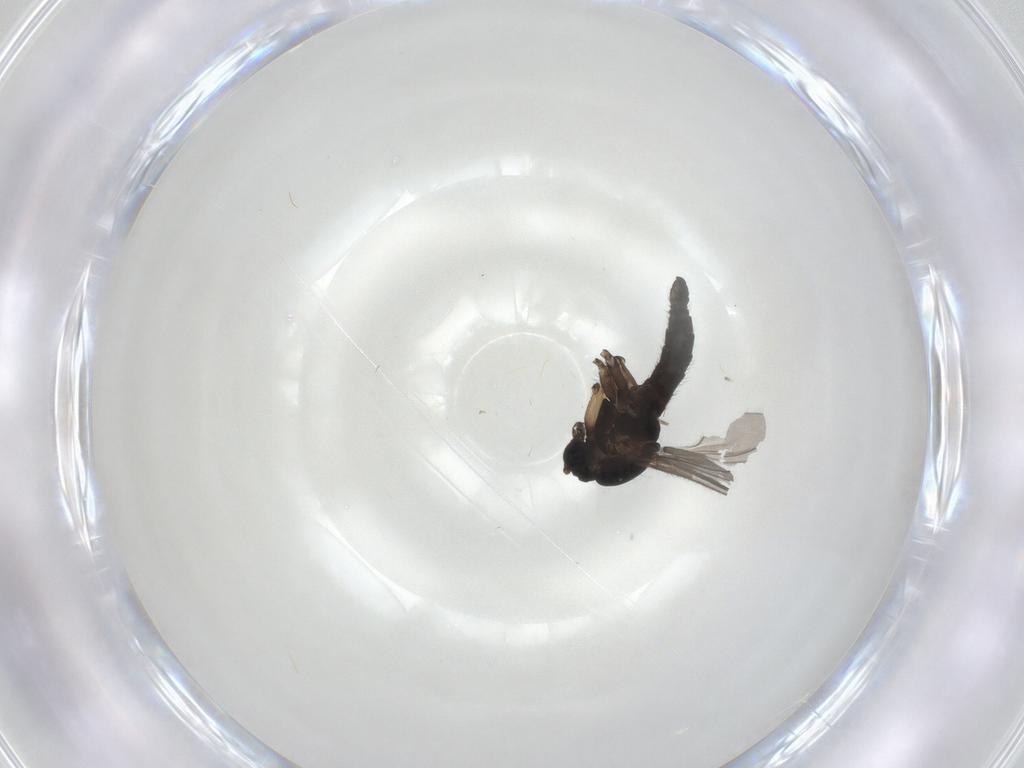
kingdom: Animalia
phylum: Arthropoda
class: Insecta
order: Diptera
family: Sciaridae
